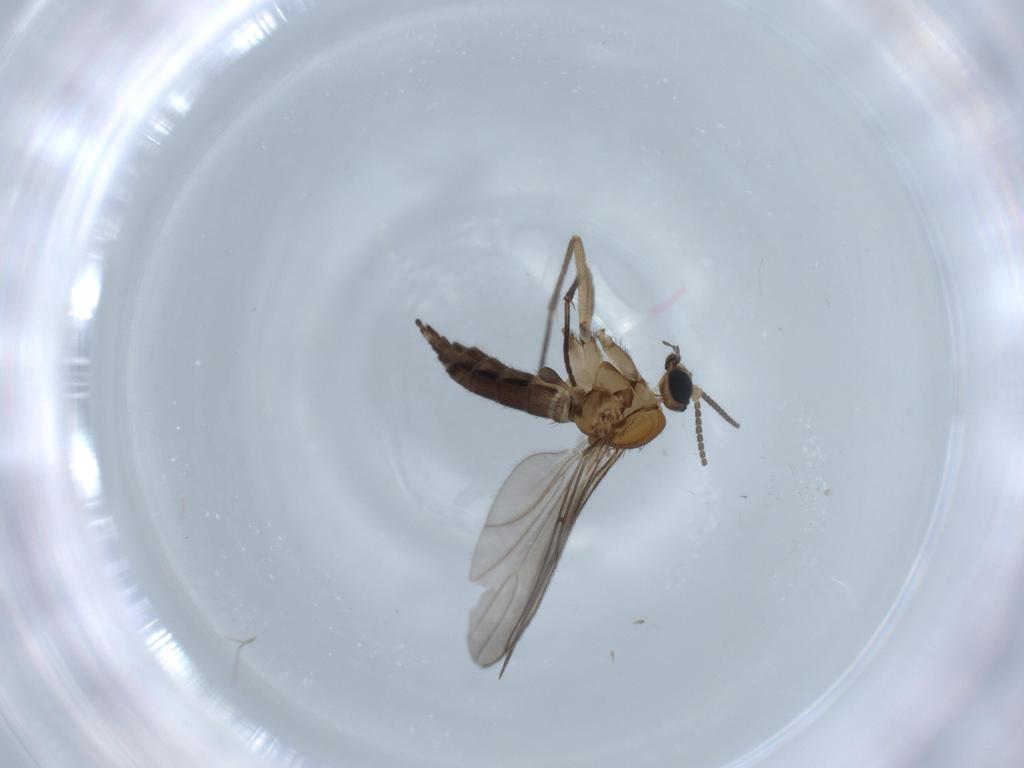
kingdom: Animalia
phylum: Arthropoda
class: Insecta
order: Diptera
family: Sciaridae
